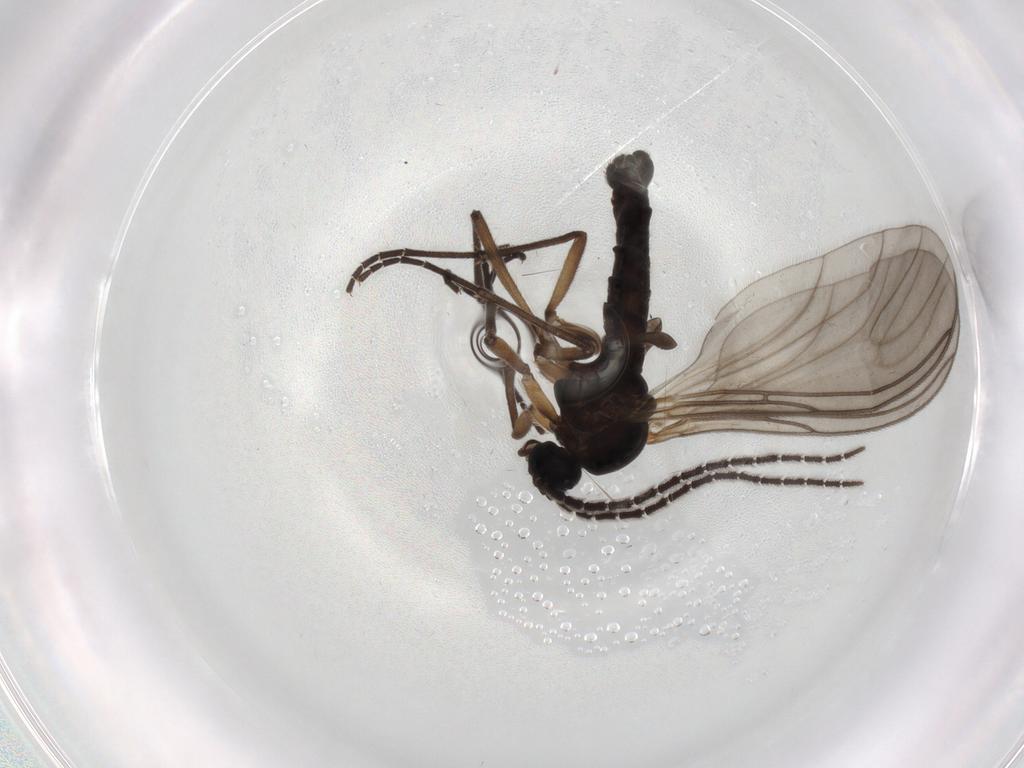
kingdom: Animalia
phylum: Arthropoda
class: Insecta
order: Diptera
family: Sciaridae
